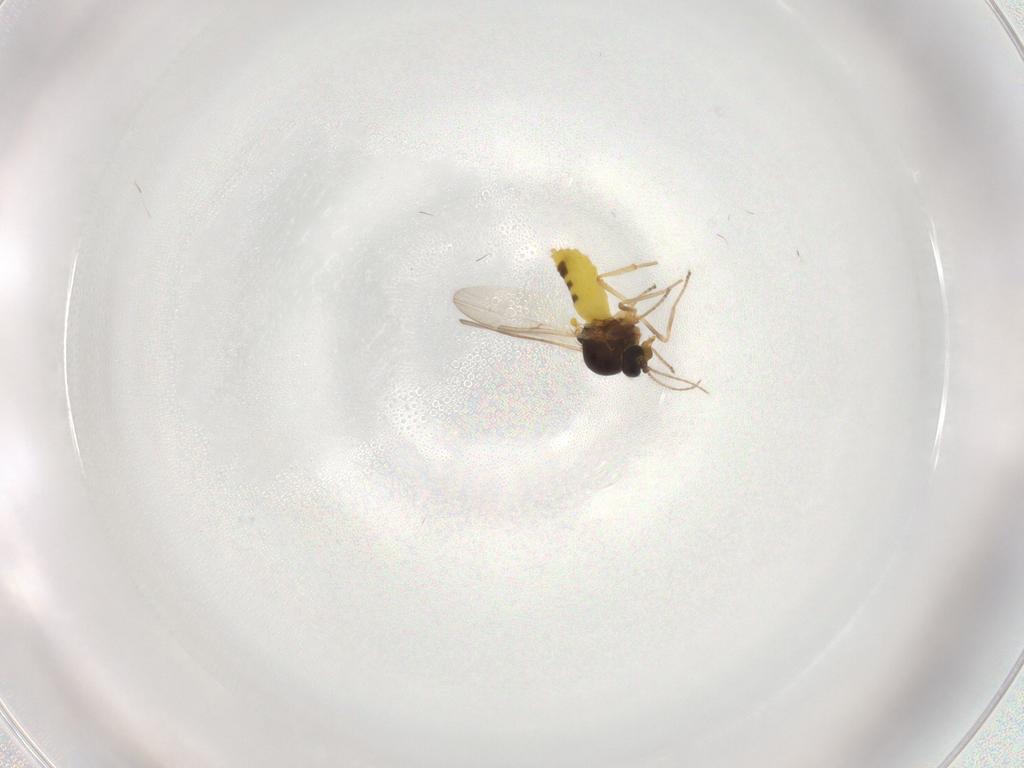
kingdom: Animalia
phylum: Arthropoda
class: Insecta
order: Diptera
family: Ceratopogonidae
